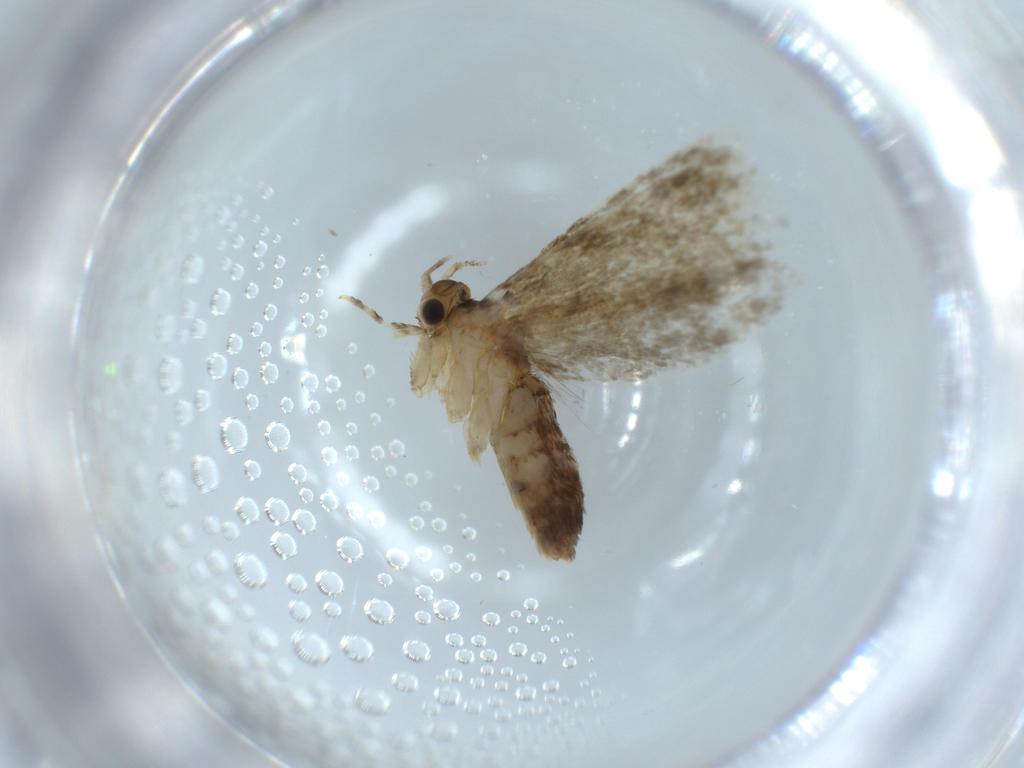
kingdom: Animalia
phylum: Arthropoda
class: Insecta
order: Lepidoptera
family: Tineidae
